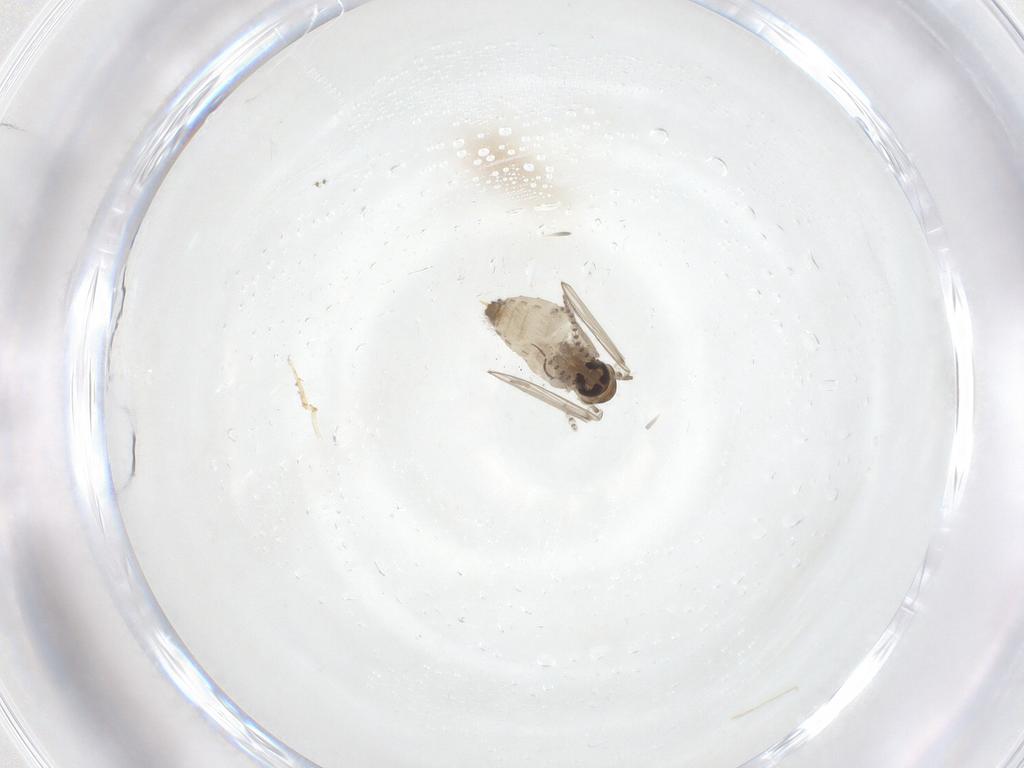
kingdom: Animalia
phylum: Arthropoda
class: Insecta
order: Diptera
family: Psychodidae
